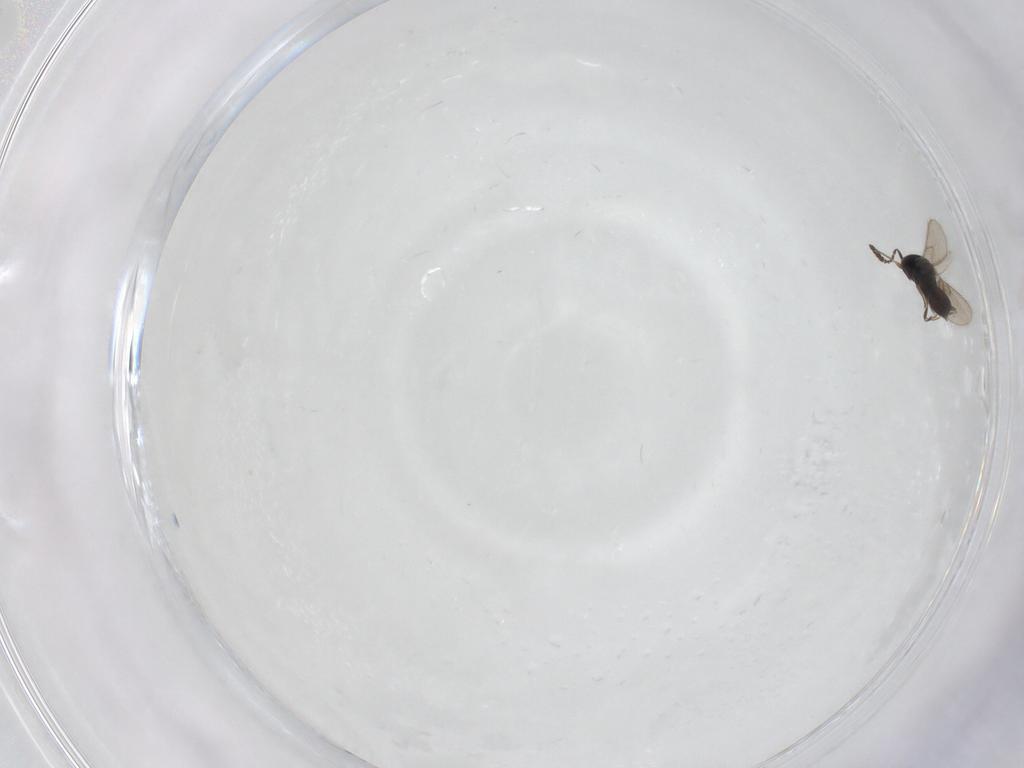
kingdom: Animalia
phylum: Arthropoda
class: Insecta
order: Hymenoptera
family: Scelionidae
